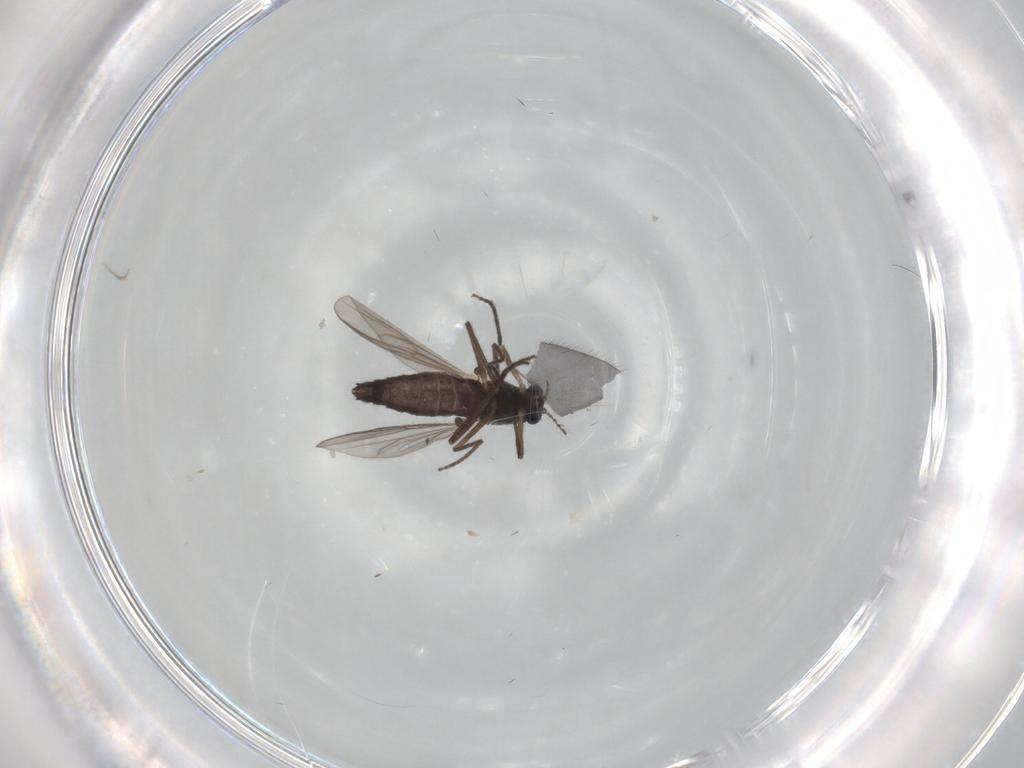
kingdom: Animalia
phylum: Arthropoda
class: Insecta
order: Diptera
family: Chironomidae
